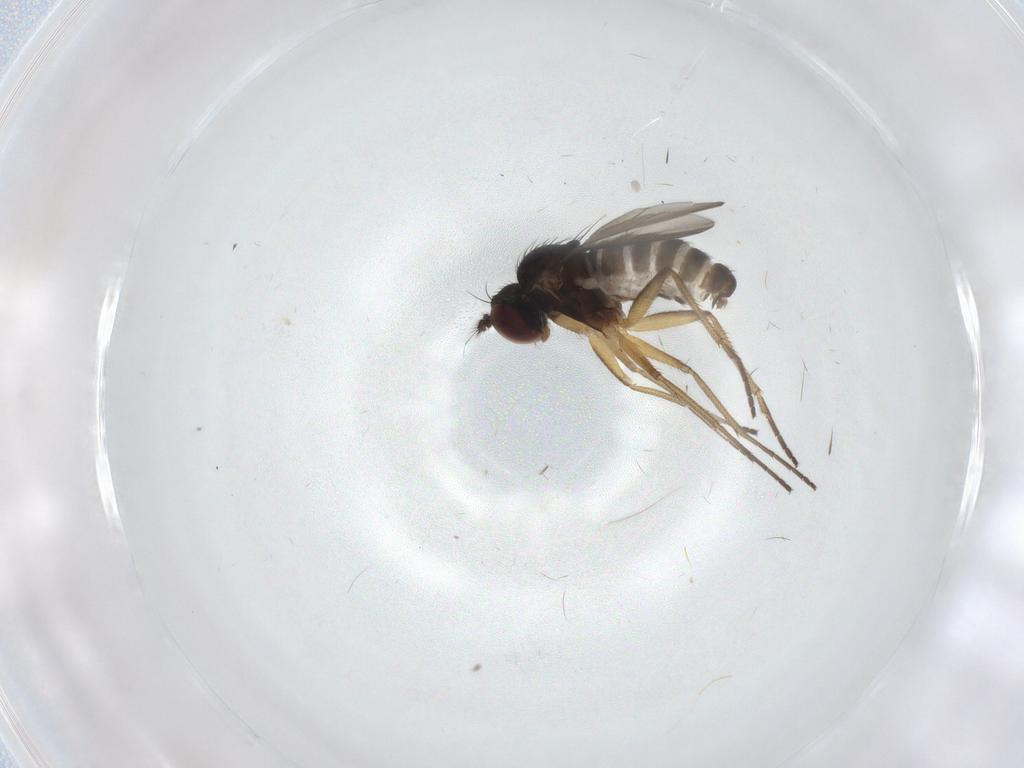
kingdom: Animalia
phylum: Arthropoda
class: Insecta
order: Diptera
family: Dolichopodidae
